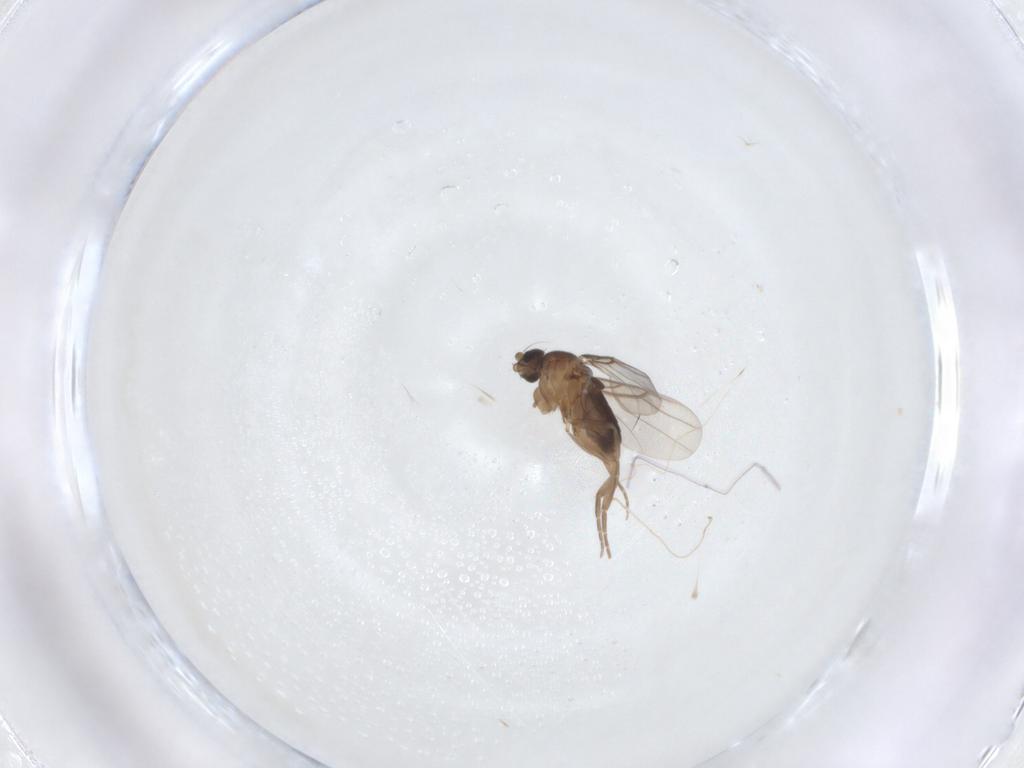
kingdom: Animalia
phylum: Arthropoda
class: Insecta
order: Diptera
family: Phoridae
